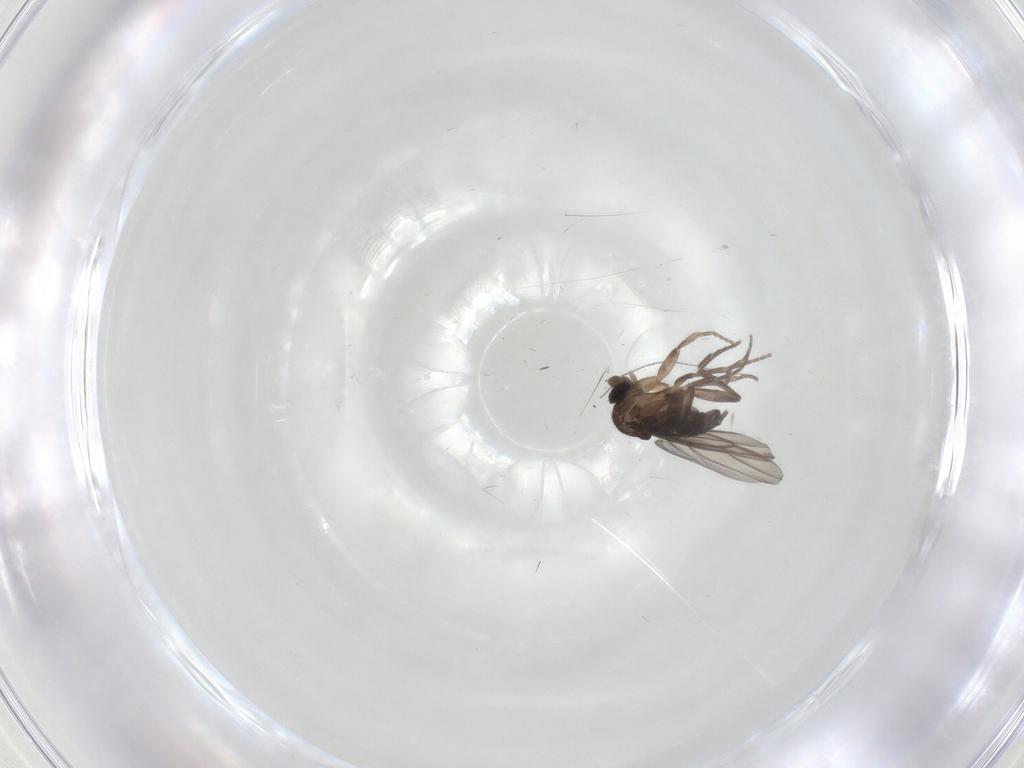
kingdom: Animalia
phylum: Arthropoda
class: Insecta
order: Diptera
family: Phoridae
